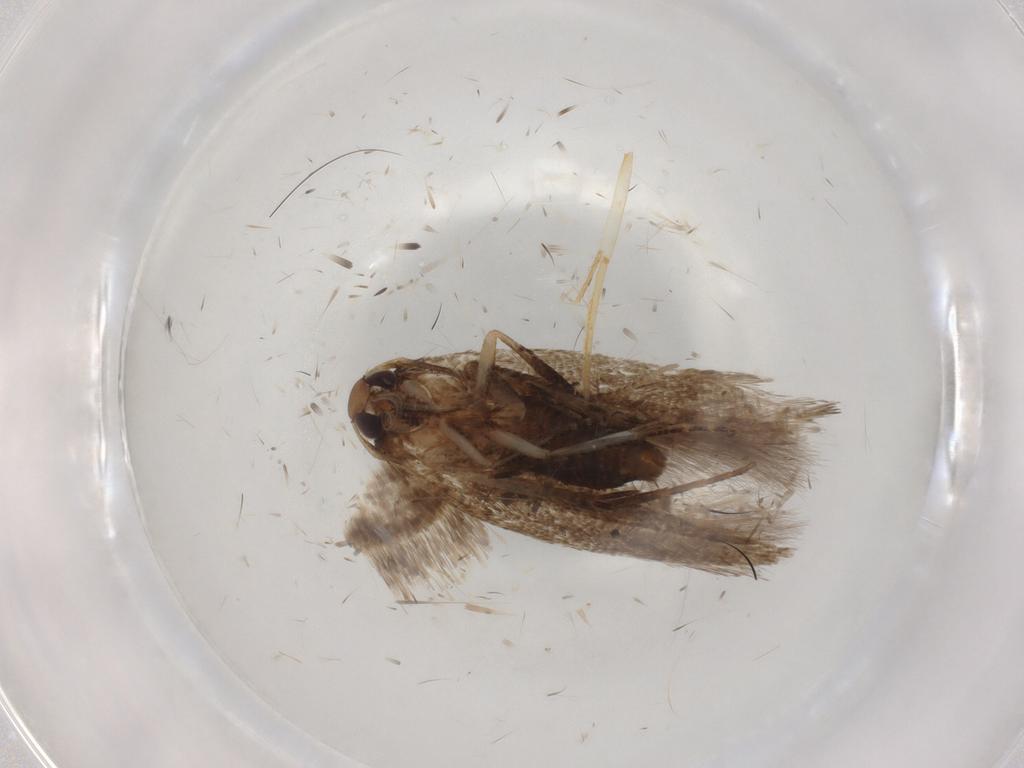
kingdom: Animalia
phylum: Arthropoda
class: Insecta
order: Lepidoptera
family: Cosmopterigidae
